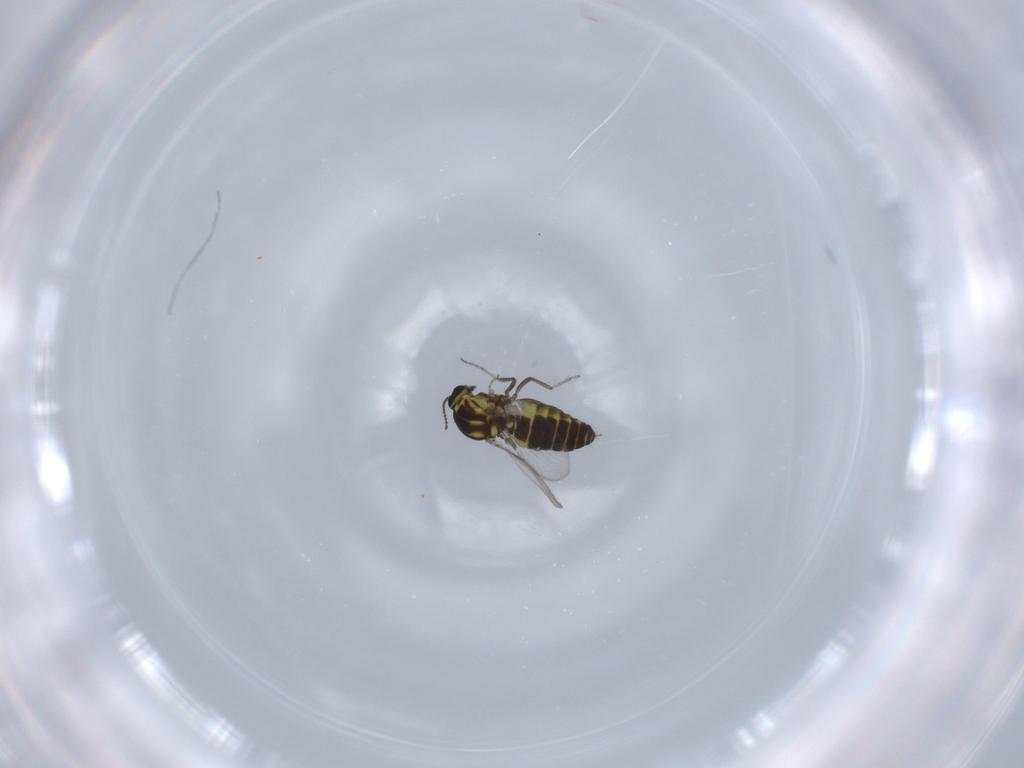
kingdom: Animalia
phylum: Arthropoda
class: Insecta
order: Diptera
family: Ceratopogonidae
